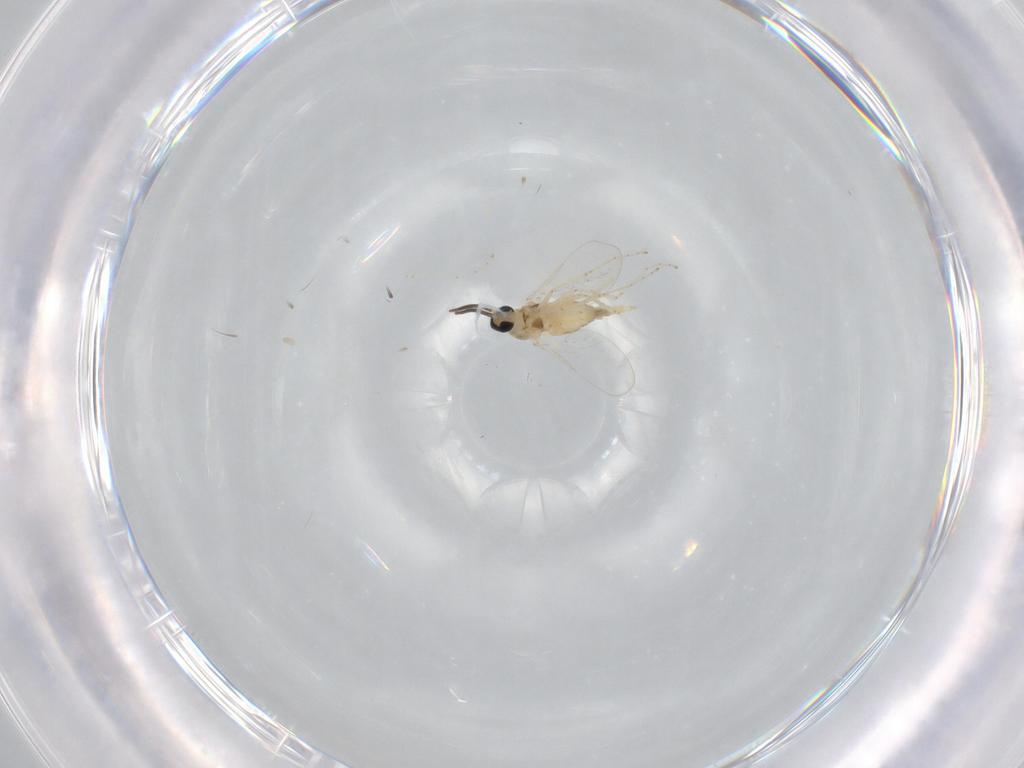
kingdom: Animalia
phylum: Arthropoda
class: Insecta
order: Diptera
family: Cecidomyiidae
